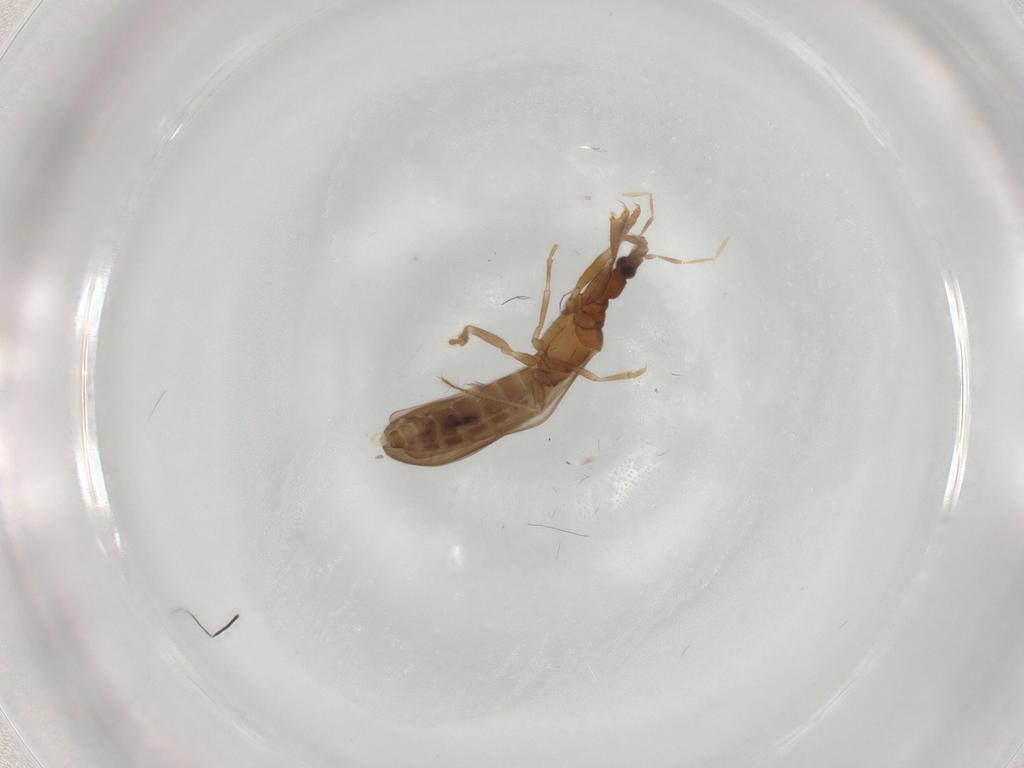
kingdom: Animalia
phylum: Arthropoda
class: Insecta
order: Hemiptera
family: Enicocephalidae
